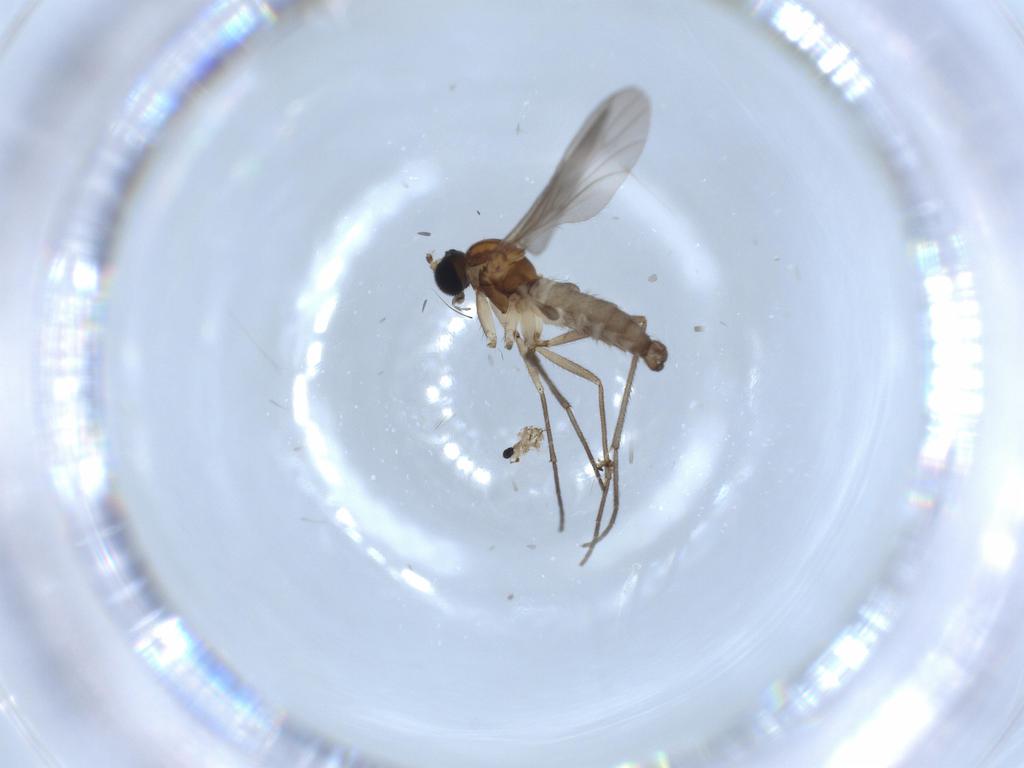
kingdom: Animalia
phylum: Arthropoda
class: Insecta
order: Diptera
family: Sciaridae
